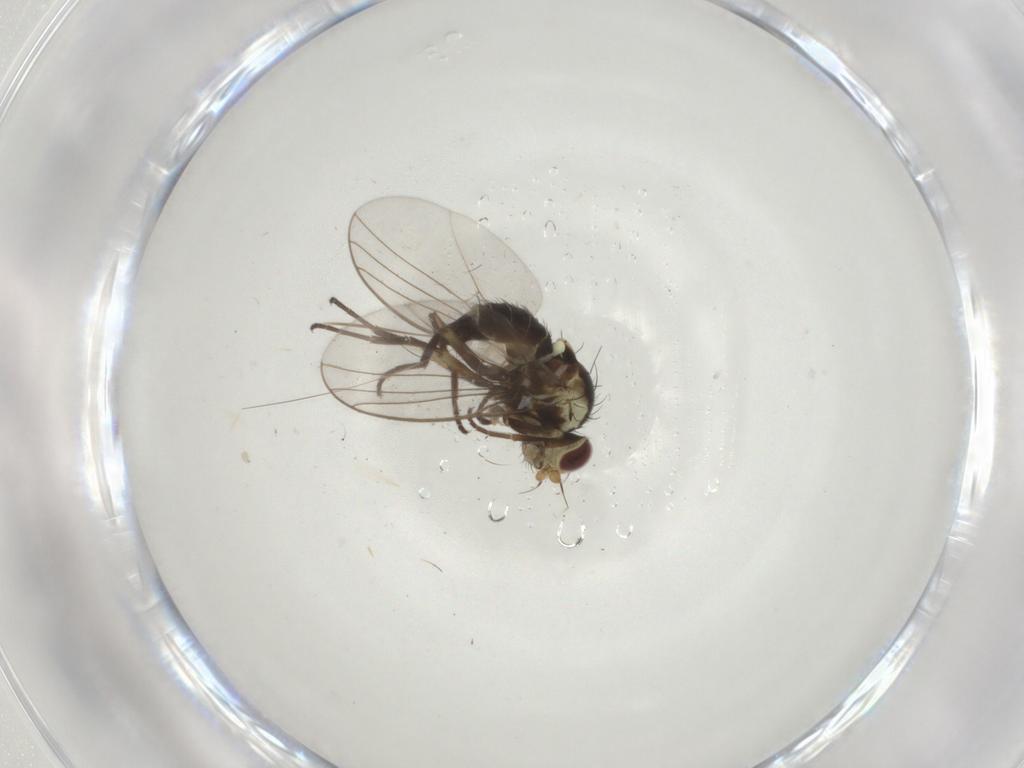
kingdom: Animalia
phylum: Arthropoda
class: Insecta
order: Diptera
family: Agromyzidae
